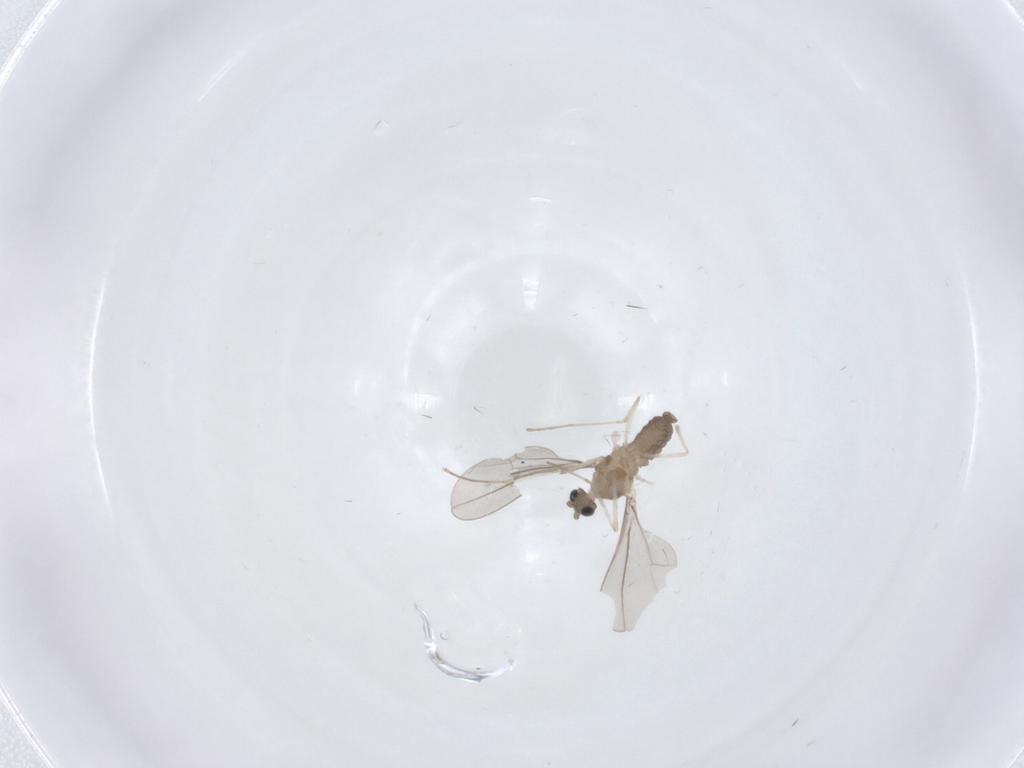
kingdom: Animalia
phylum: Arthropoda
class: Insecta
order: Diptera
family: Cecidomyiidae
